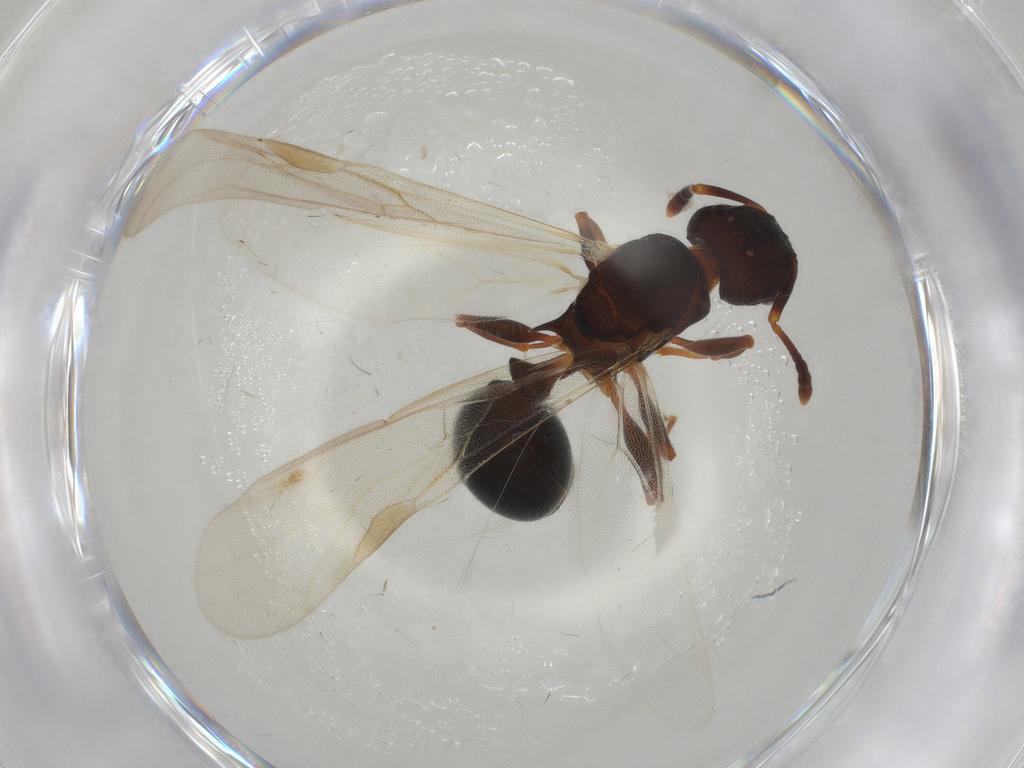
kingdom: Animalia
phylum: Arthropoda
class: Insecta
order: Hymenoptera
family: Formicidae
